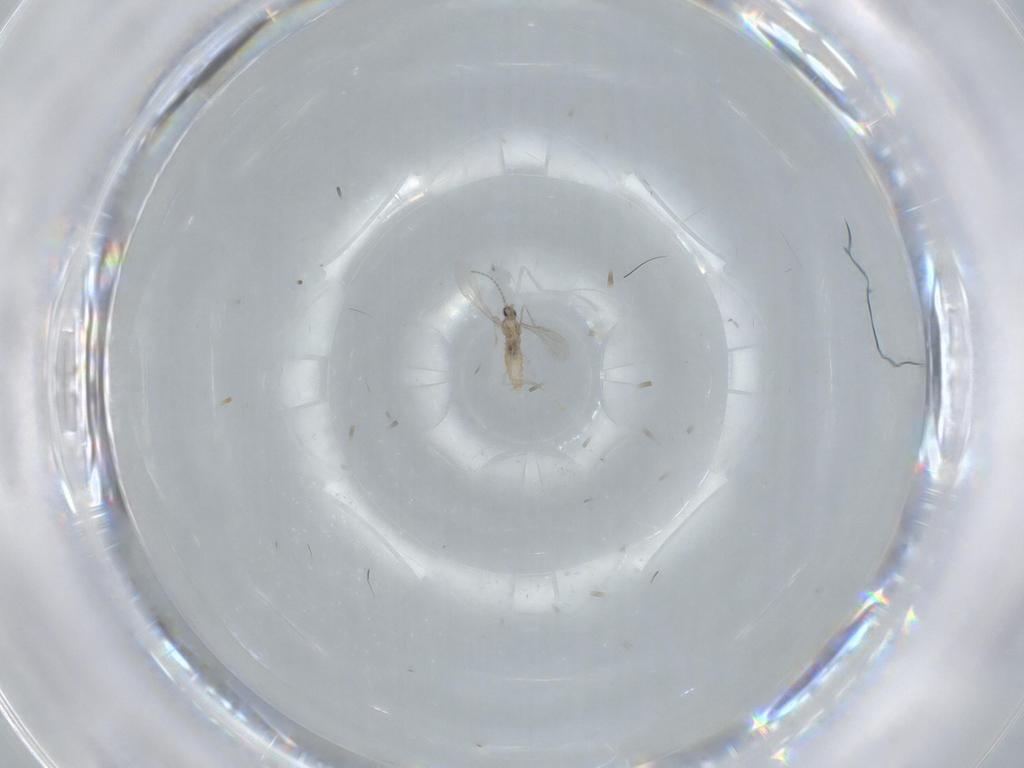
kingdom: Animalia
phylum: Arthropoda
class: Insecta
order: Diptera
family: Cecidomyiidae
